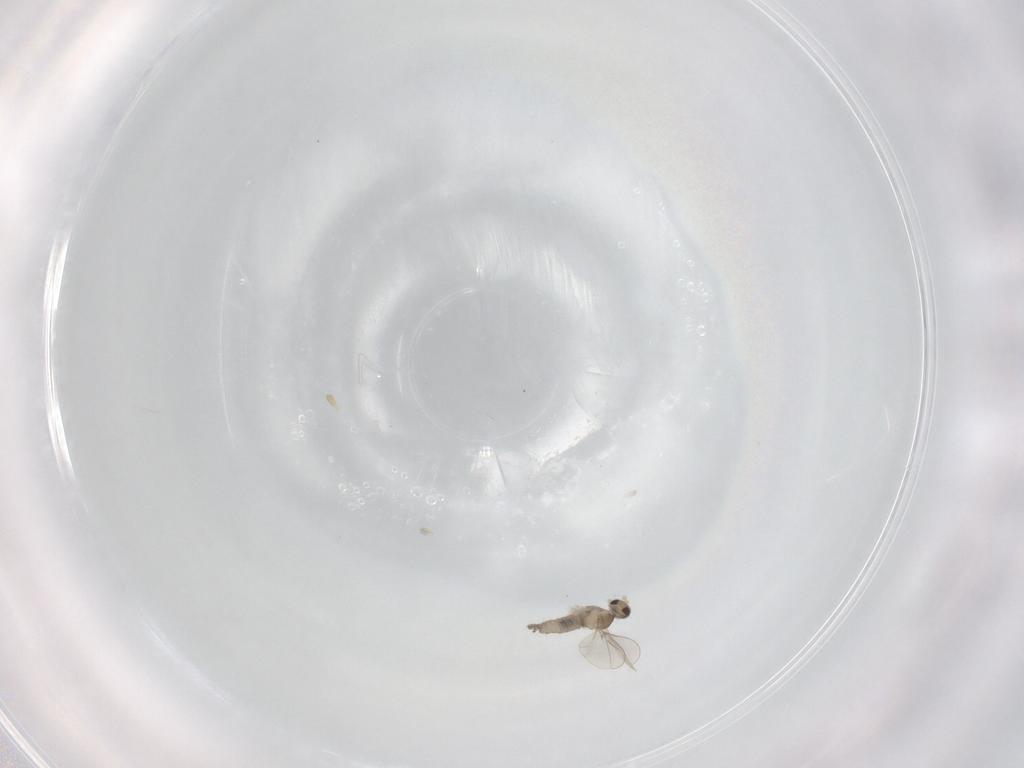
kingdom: Animalia
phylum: Arthropoda
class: Insecta
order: Diptera
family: Cecidomyiidae
